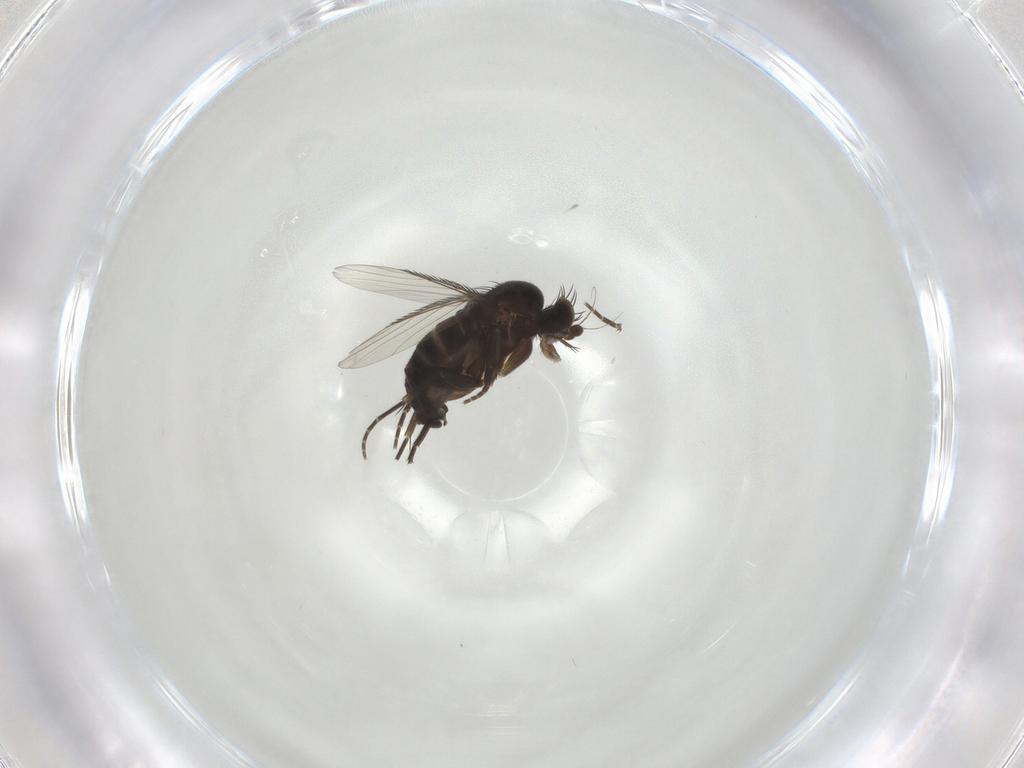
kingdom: Animalia
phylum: Arthropoda
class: Insecta
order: Diptera
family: Phoridae
